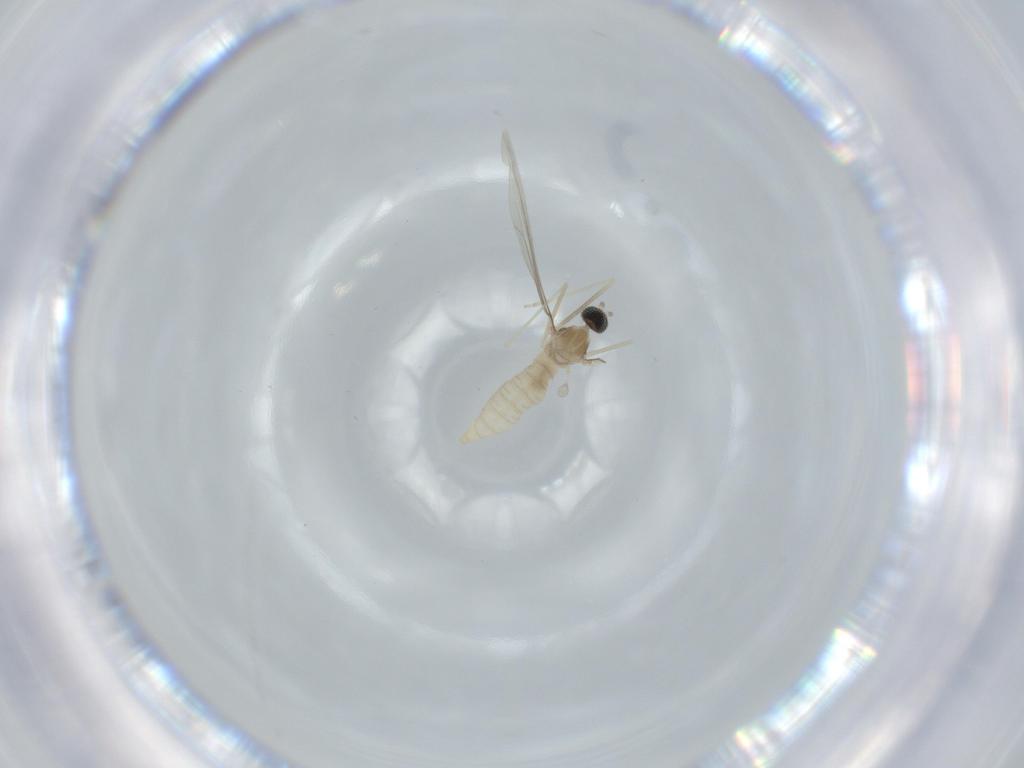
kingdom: Animalia
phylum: Arthropoda
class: Insecta
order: Diptera
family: Cecidomyiidae
